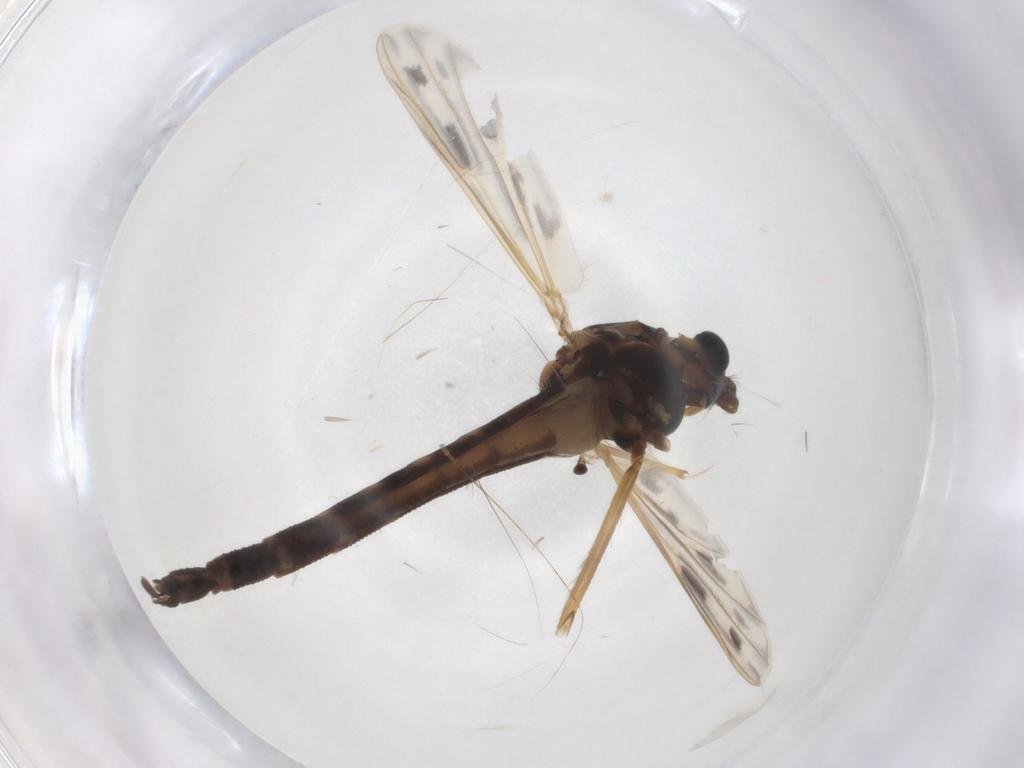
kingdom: Animalia
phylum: Arthropoda
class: Insecta
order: Diptera
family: Chironomidae
